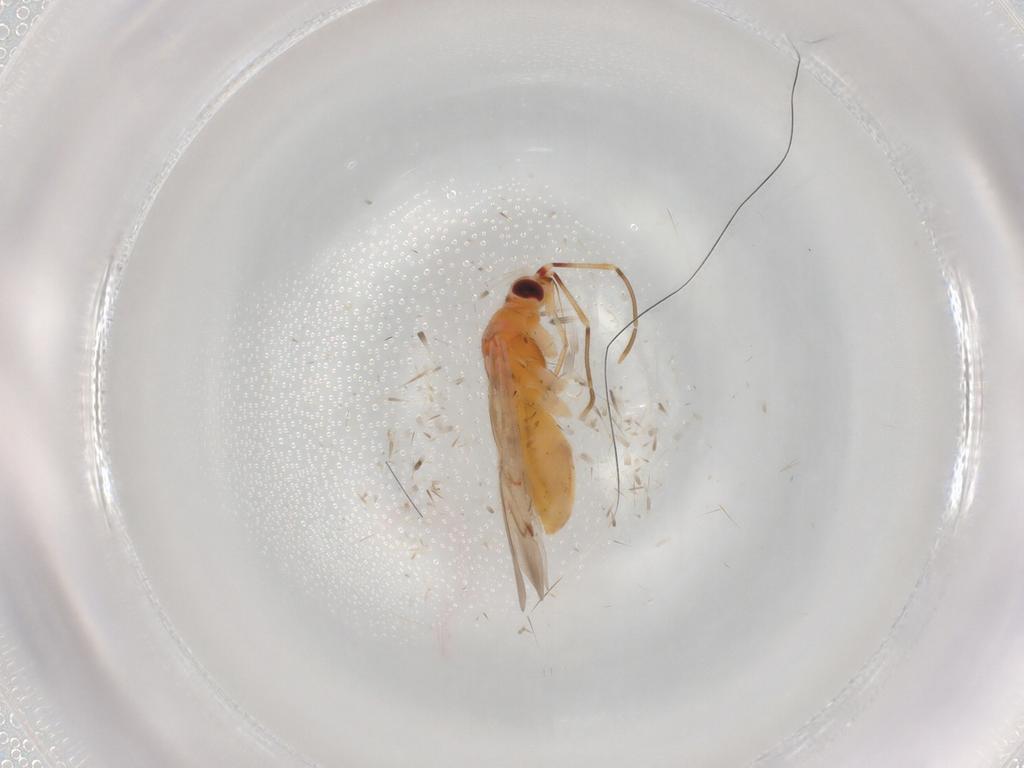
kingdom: Animalia
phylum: Arthropoda
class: Insecta
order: Hemiptera
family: Miridae
